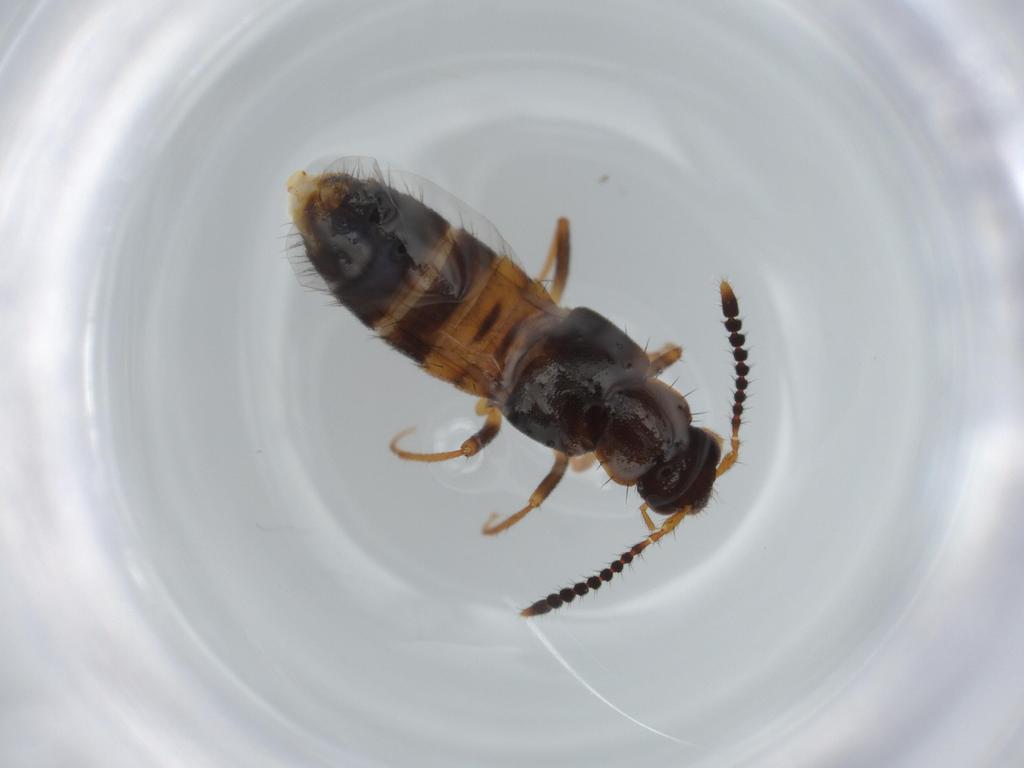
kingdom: Animalia
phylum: Arthropoda
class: Insecta
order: Coleoptera
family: Staphylinidae
